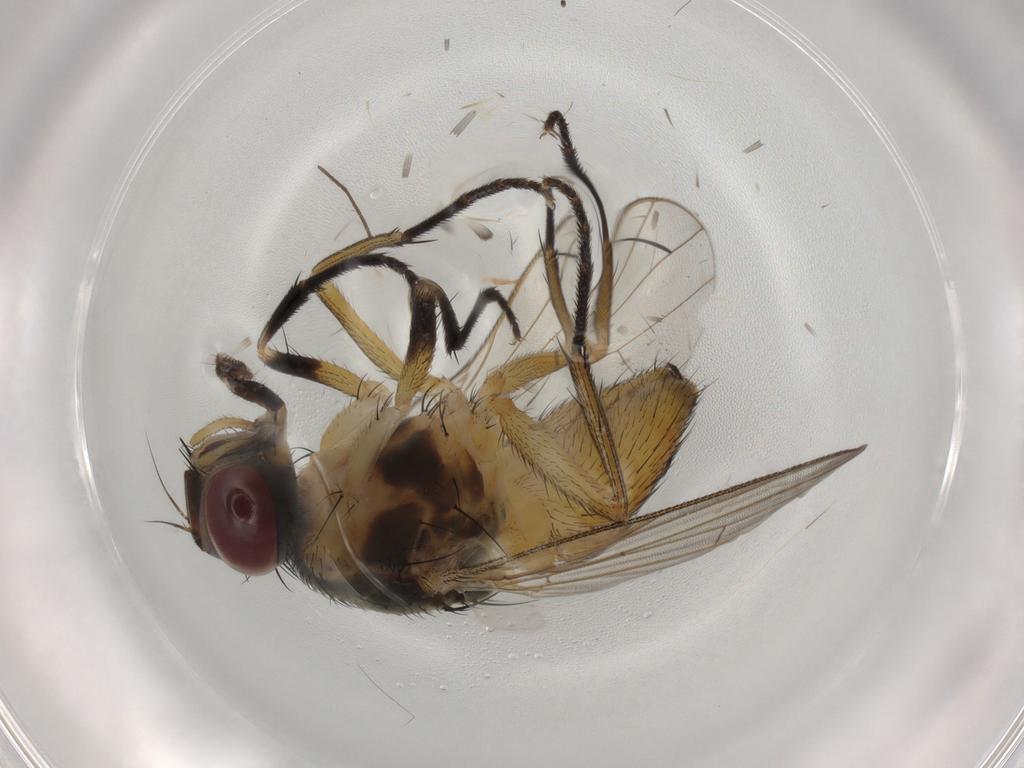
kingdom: Animalia
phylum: Arthropoda
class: Insecta
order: Diptera
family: Muscidae
